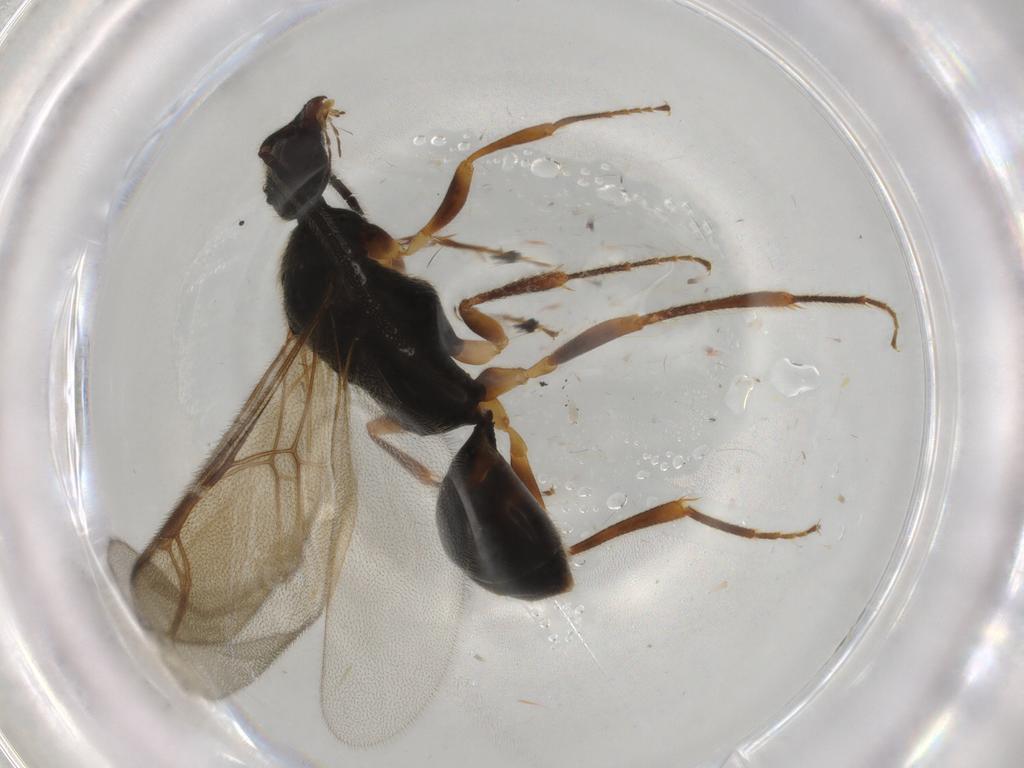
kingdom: Animalia
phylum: Arthropoda
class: Insecta
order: Hymenoptera
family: Bethylidae
